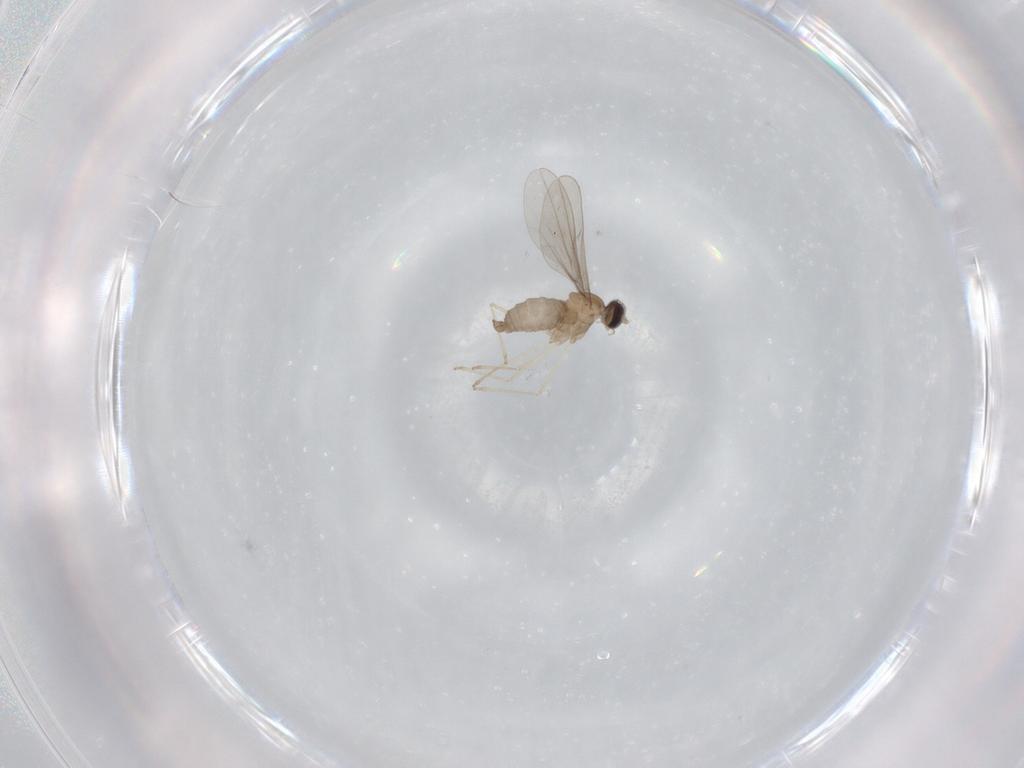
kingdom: Animalia
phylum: Arthropoda
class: Insecta
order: Diptera
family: Cecidomyiidae
